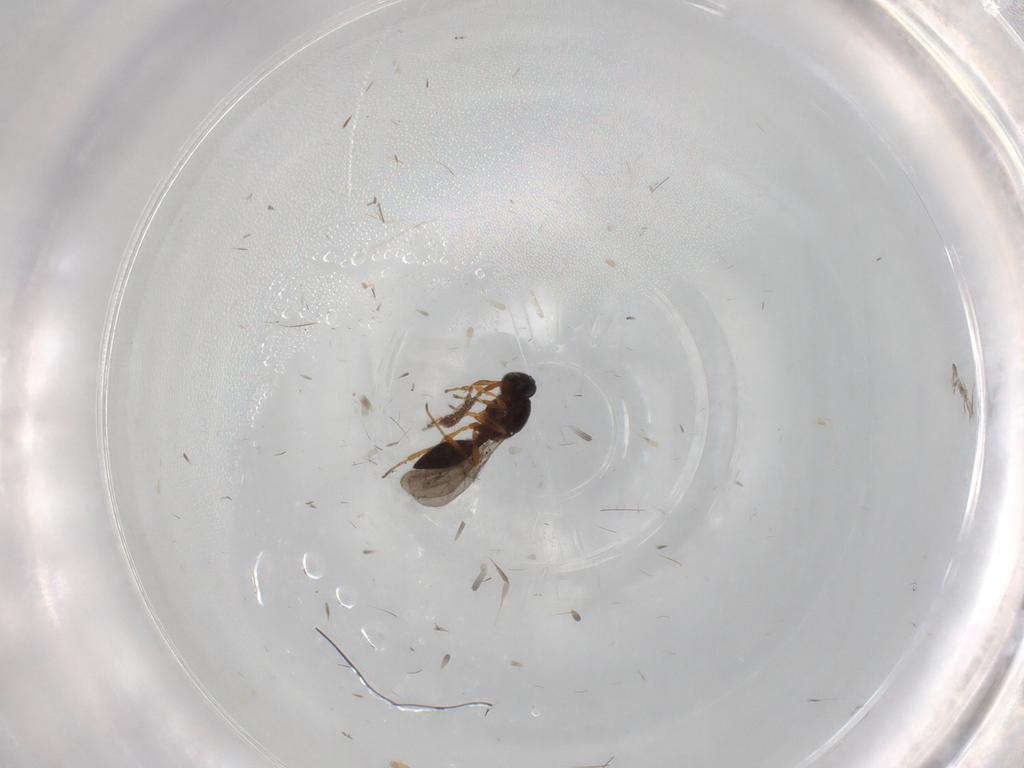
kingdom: Animalia
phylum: Arthropoda
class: Insecta
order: Hymenoptera
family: Platygastridae
